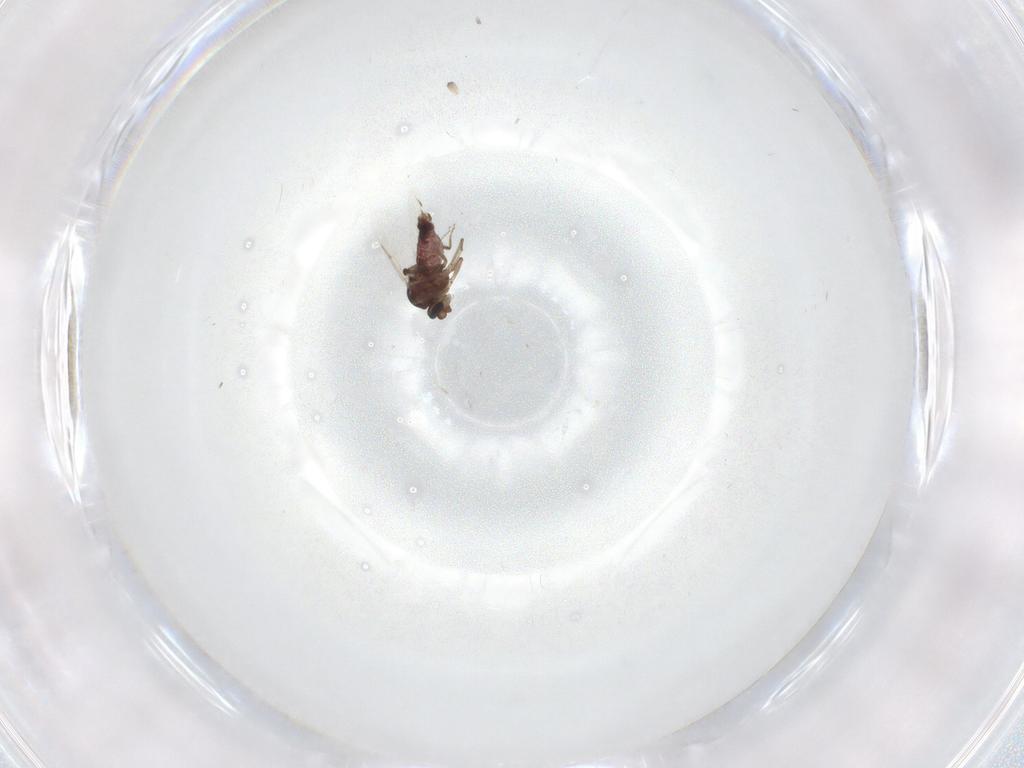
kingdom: Animalia
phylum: Arthropoda
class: Insecta
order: Diptera
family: Ceratopogonidae
